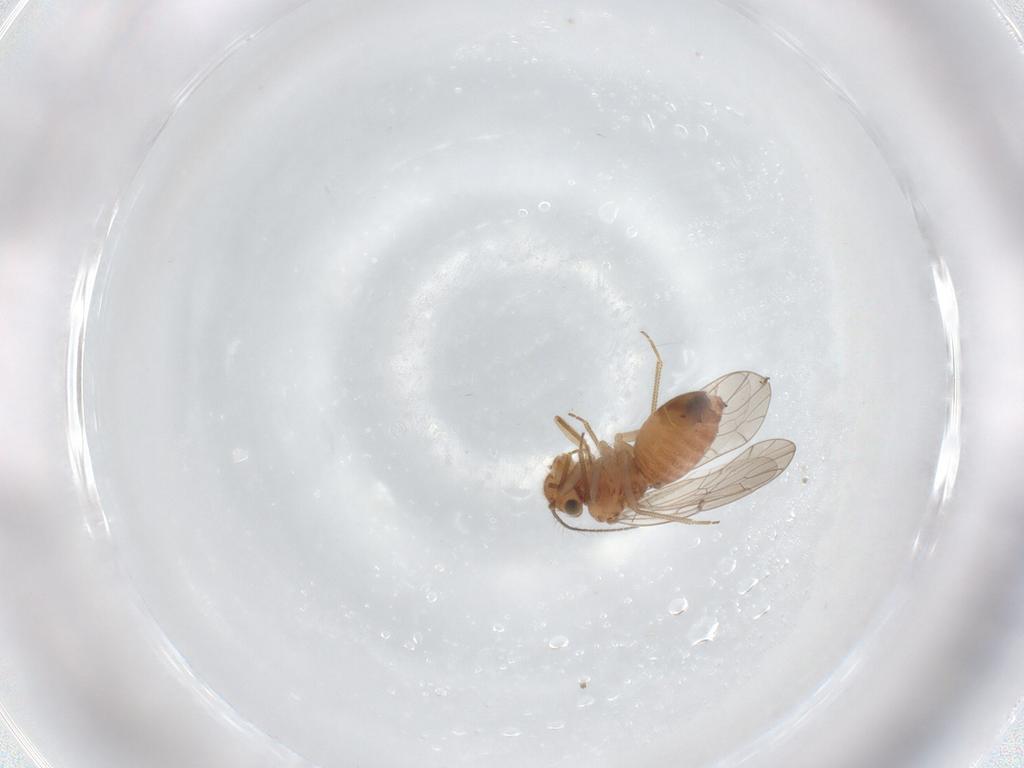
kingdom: Animalia
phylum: Arthropoda
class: Insecta
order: Psocodea
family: Ectopsocidae
